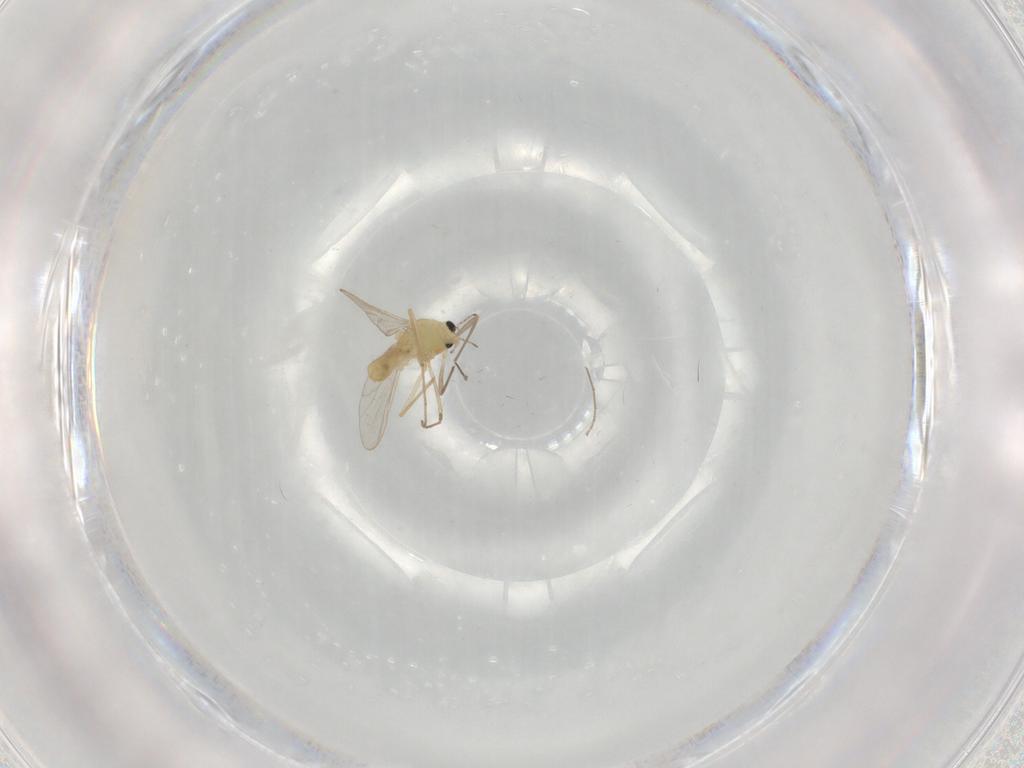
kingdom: Animalia
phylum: Arthropoda
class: Insecta
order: Diptera
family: Chironomidae
